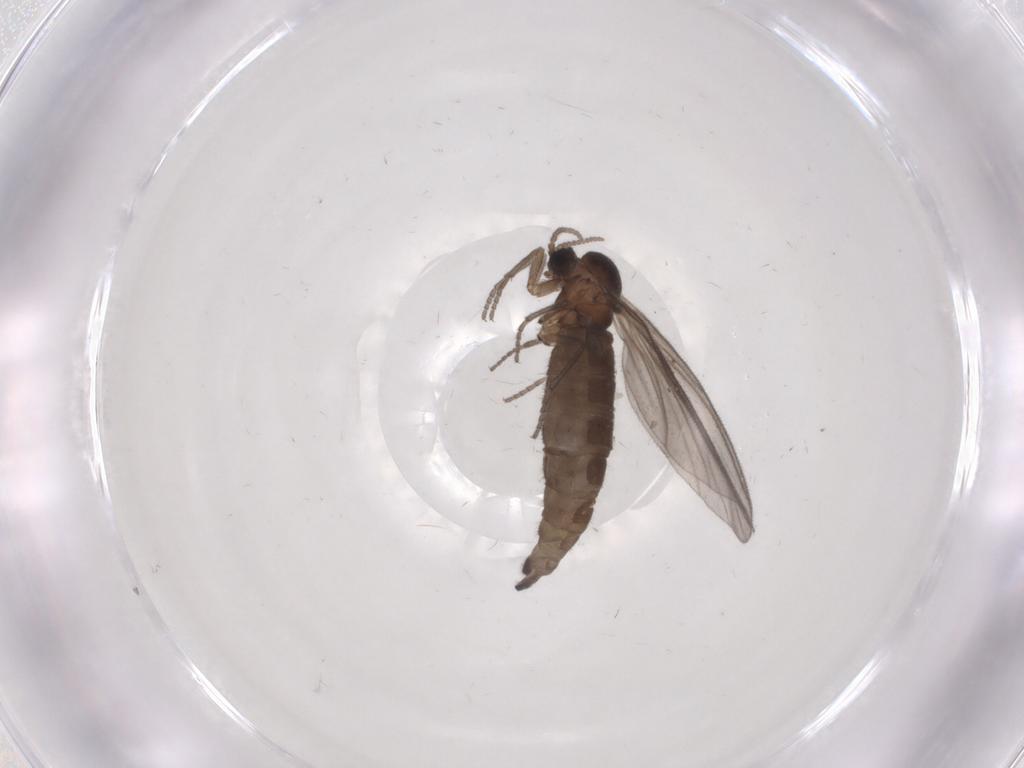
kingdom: Animalia
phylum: Arthropoda
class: Insecta
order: Diptera
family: Sciaridae
